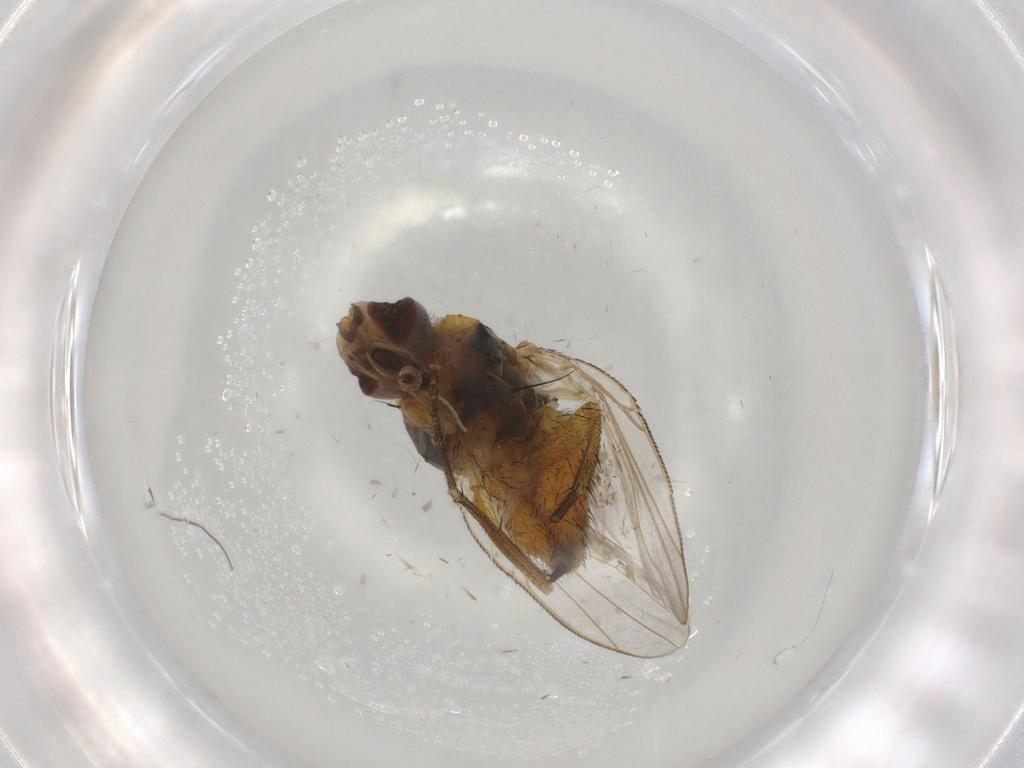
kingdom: Animalia
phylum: Arthropoda
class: Insecta
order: Diptera
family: Muscidae
